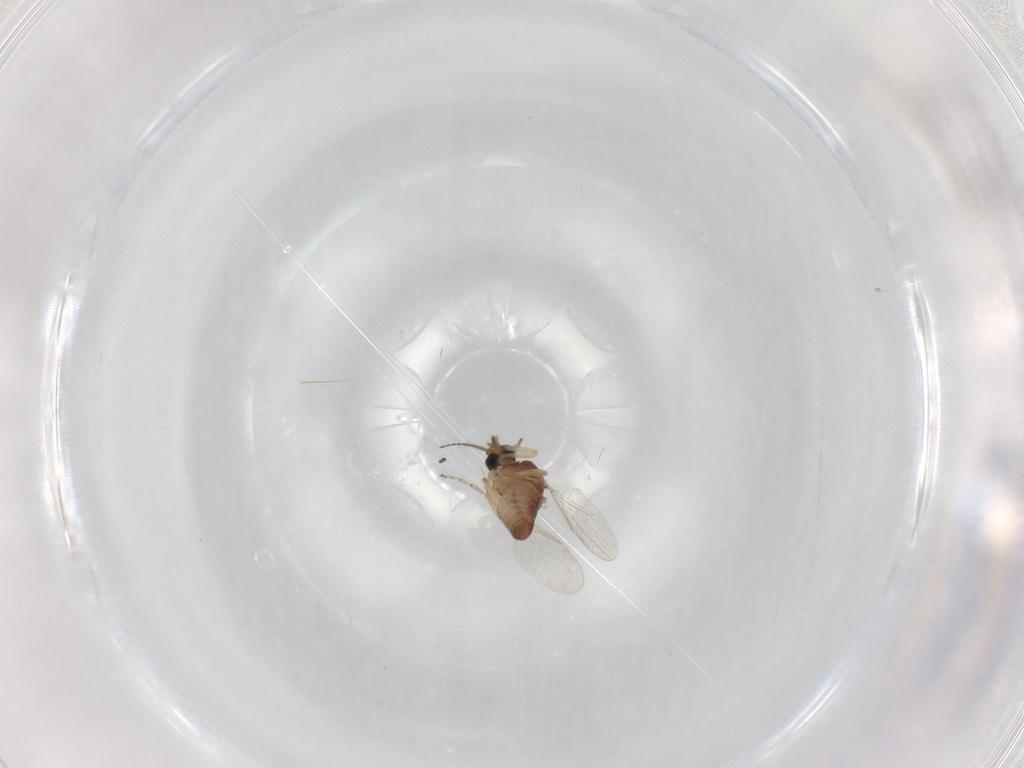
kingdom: Animalia
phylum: Arthropoda
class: Insecta
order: Diptera
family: Ceratopogonidae
